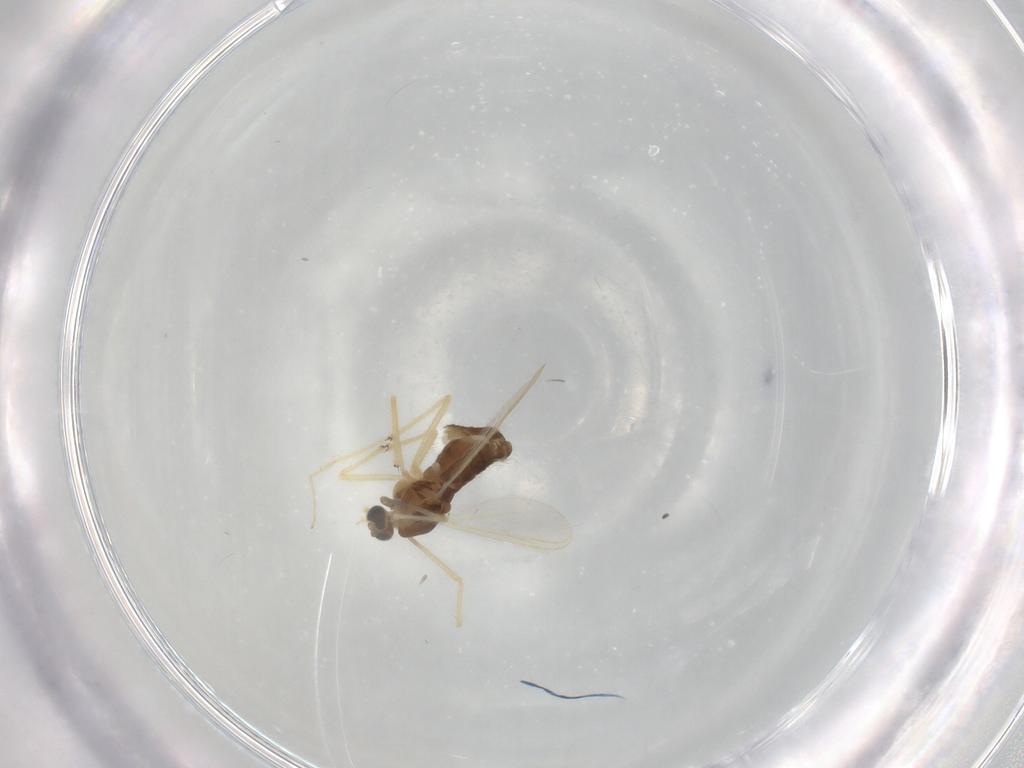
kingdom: Animalia
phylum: Arthropoda
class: Insecta
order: Diptera
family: Chironomidae
